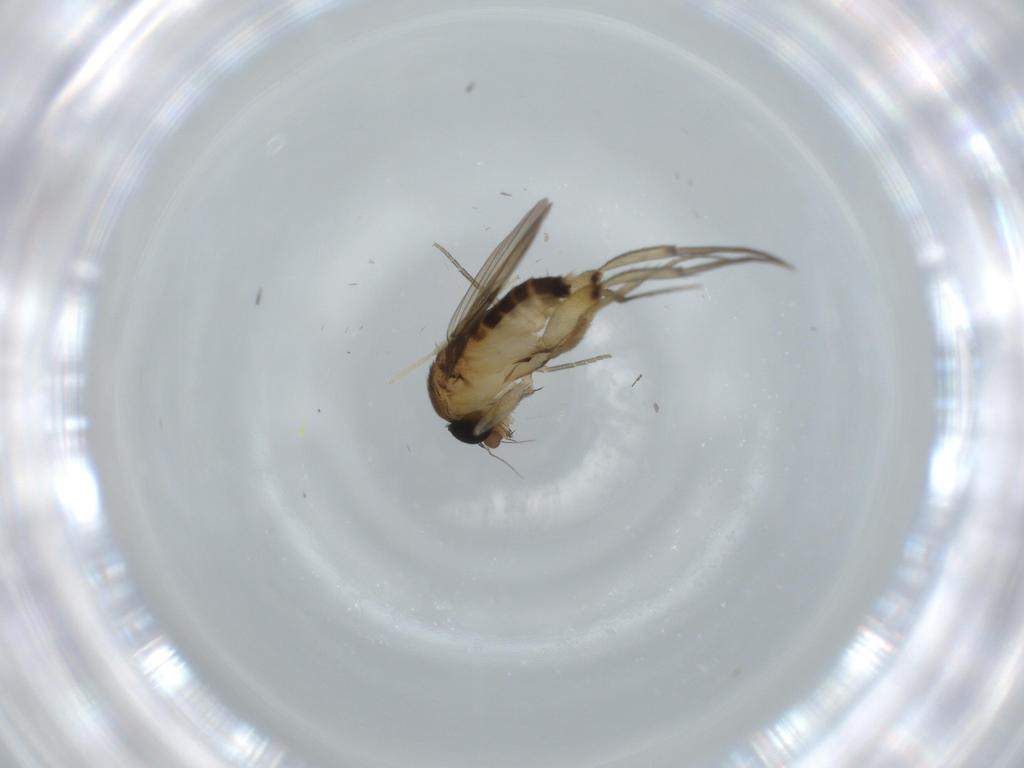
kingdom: Animalia
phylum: Arthropoda
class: Insecta
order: Diptera
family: Phoridae
